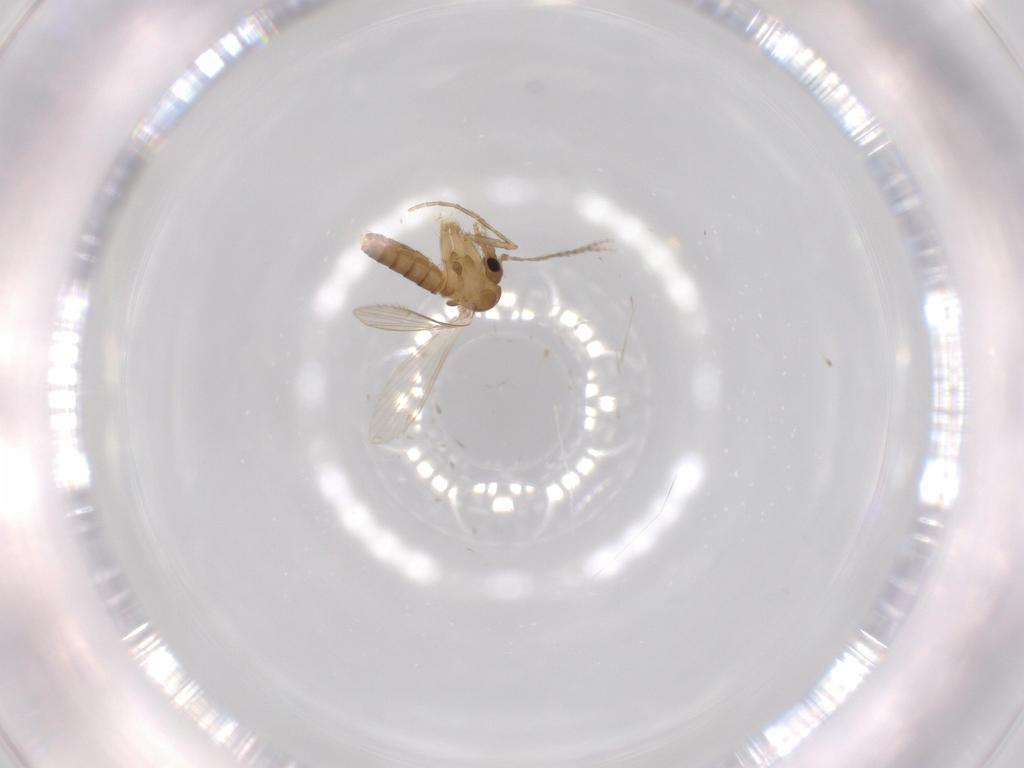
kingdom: Animalia
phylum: Arthropoda
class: Insecta
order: Diptera
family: Psychodidae
